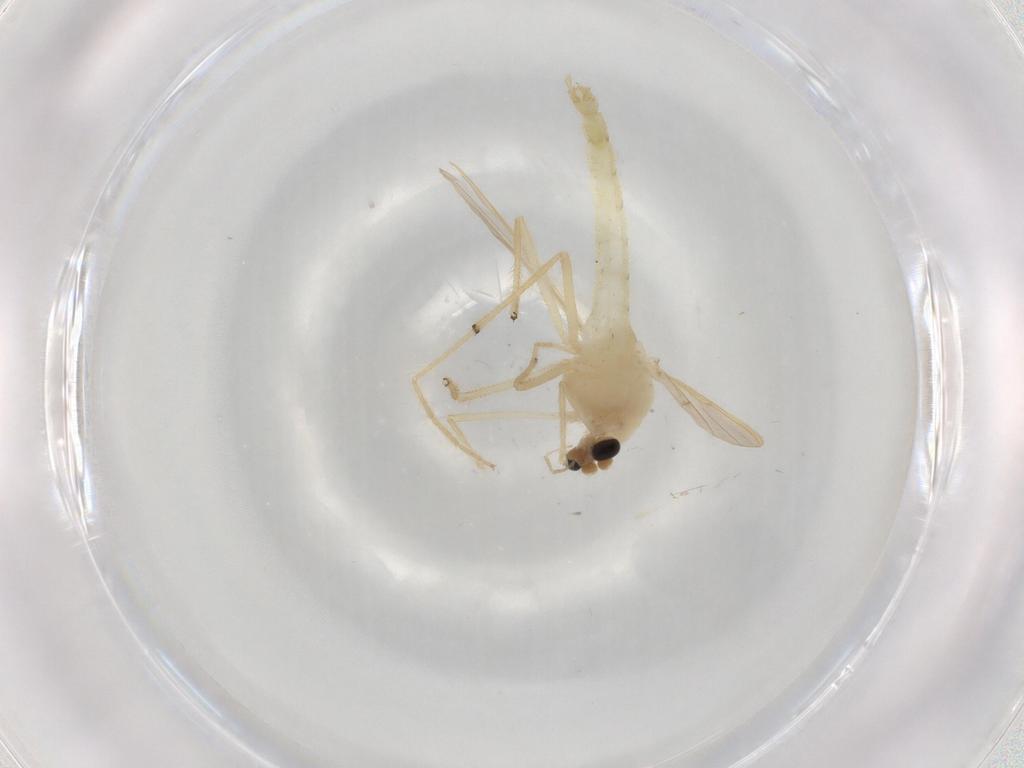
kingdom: Animalia
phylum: Arthropoda
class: Insecta
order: Diptera
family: Chironomidae
